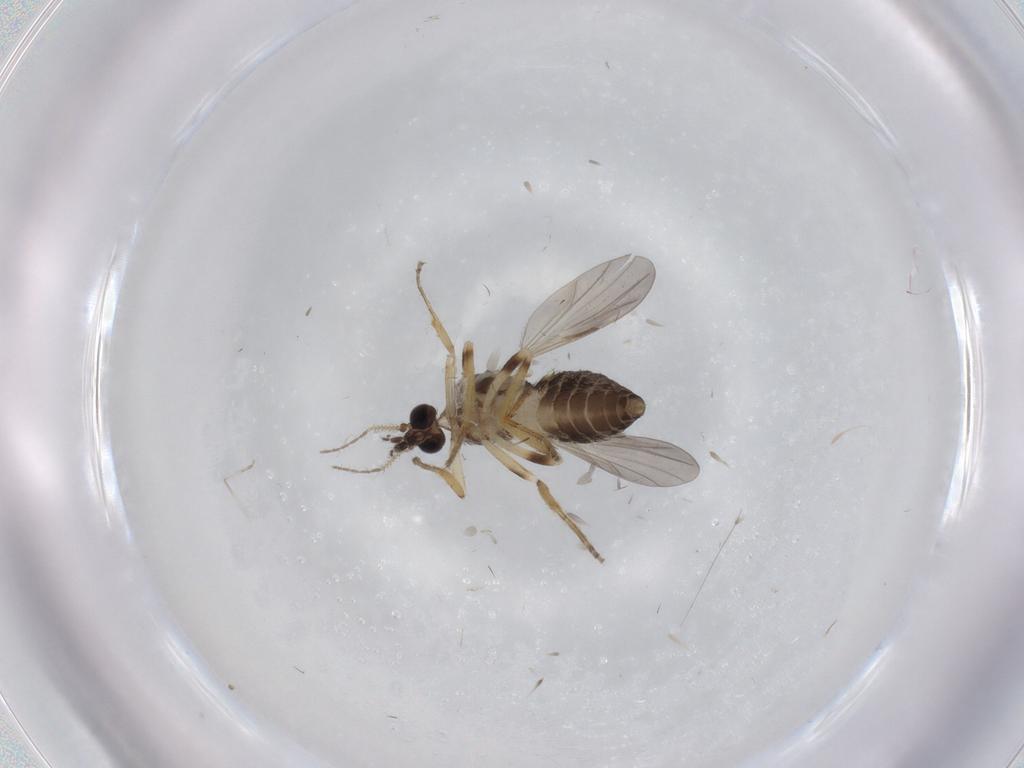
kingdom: Animalia
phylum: Arthropoda
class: Insecta
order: Diptera
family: Ceratopogonidae
